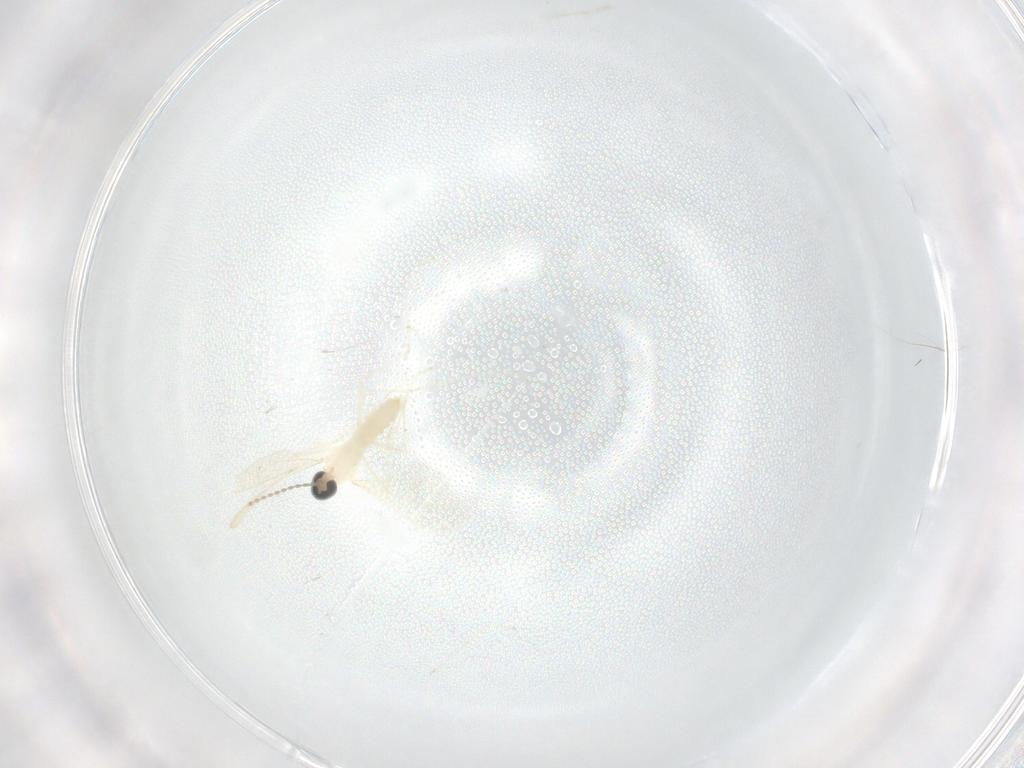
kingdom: Animalia
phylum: Arthropoda
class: Insecta
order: Diptera
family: Cecidomyiidae
